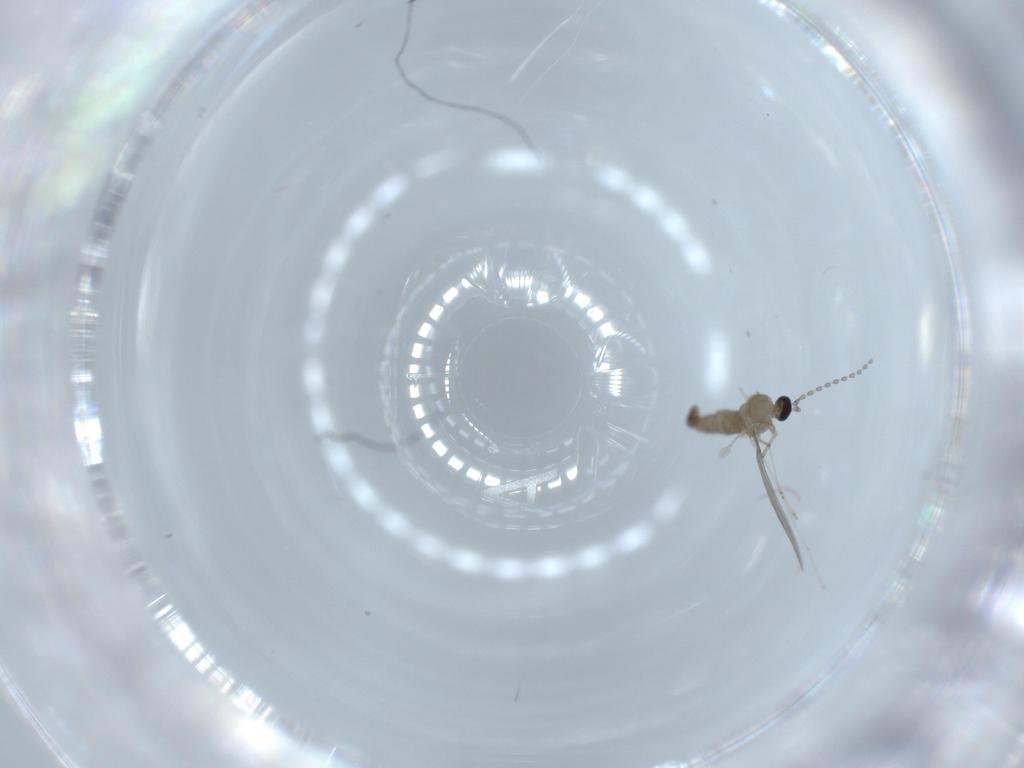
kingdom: Animalia
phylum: Arthropoda
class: Insecta
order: Diptera
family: Cecidomyiidae
